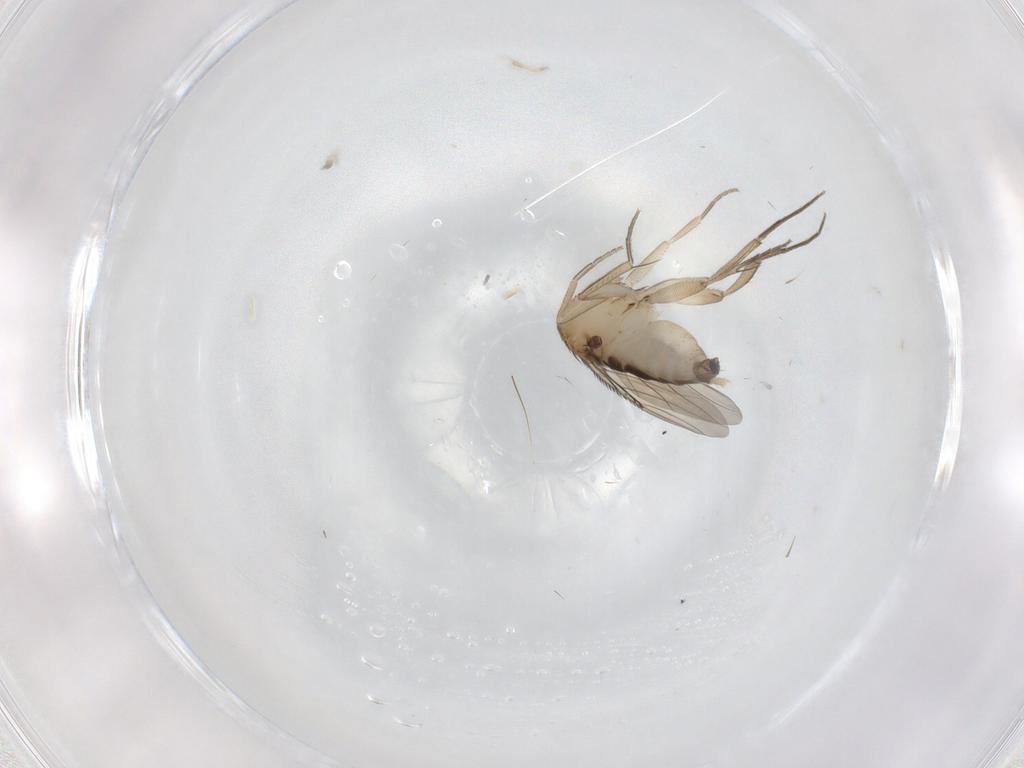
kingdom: Animalia
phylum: Arthropoda
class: Insecta
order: Diptera
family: Phoridae
